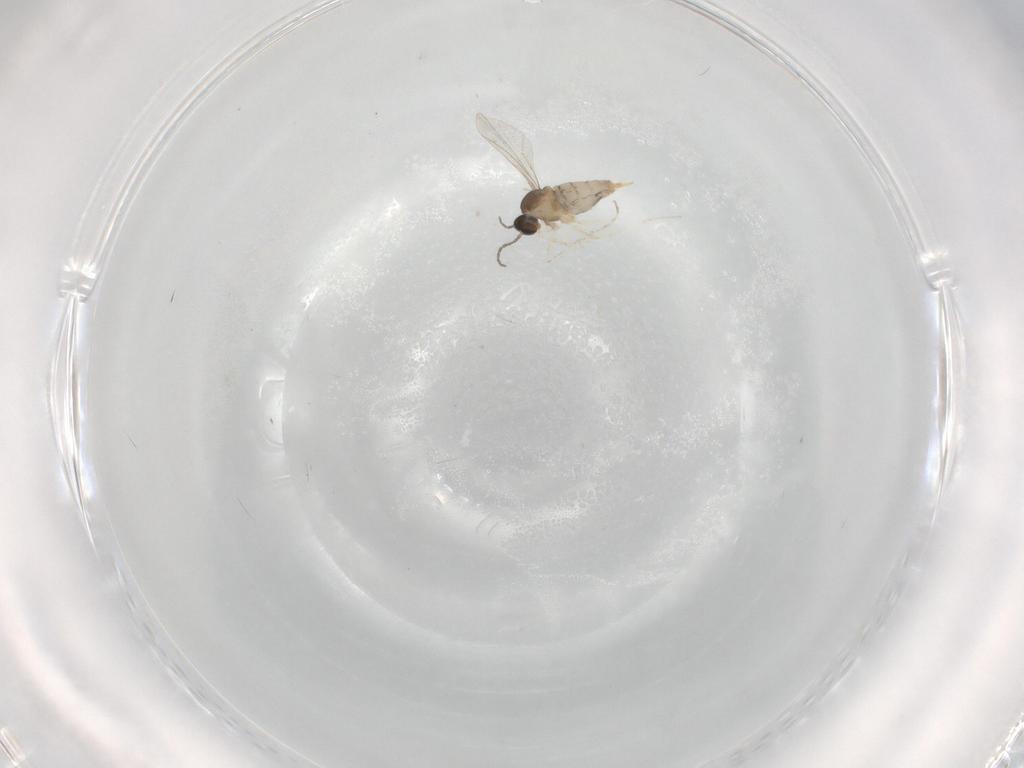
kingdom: Animalia
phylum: Arthropoda
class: Insecta
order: Diptera
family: Cecidomyiidae
